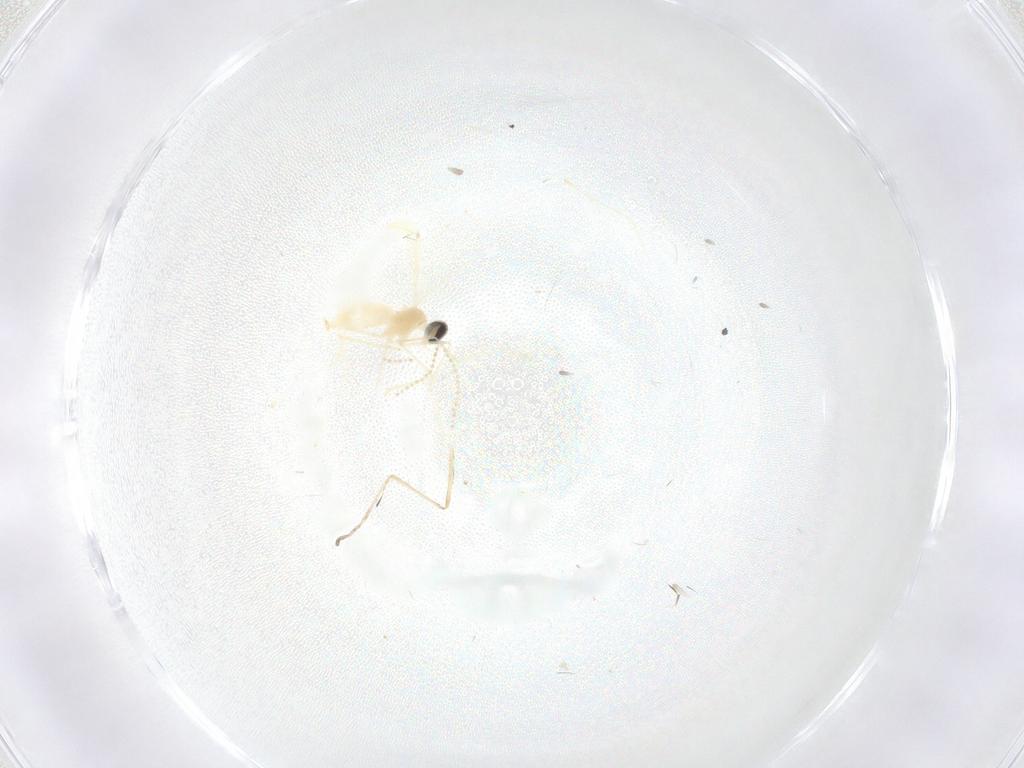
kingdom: Animalia
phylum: Arthropoda
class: Insecta
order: Diptera
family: Cecidomyiidae
